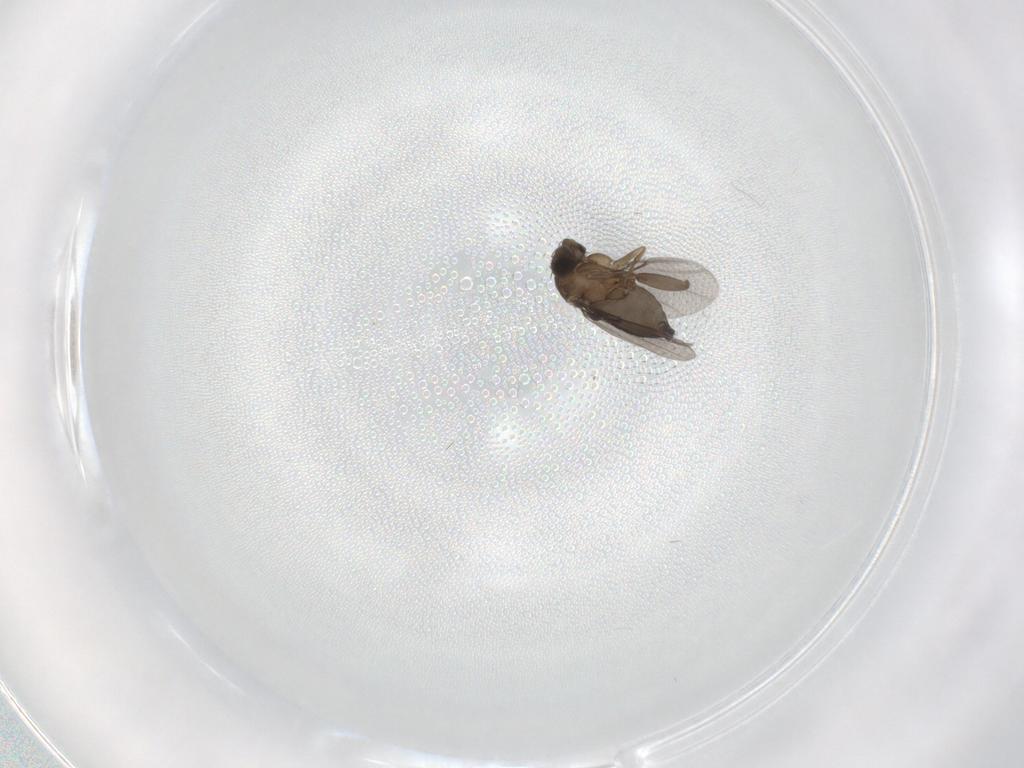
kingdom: Animalia
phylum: Arthropoda
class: Insecta
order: Diptera
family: Phoridae
